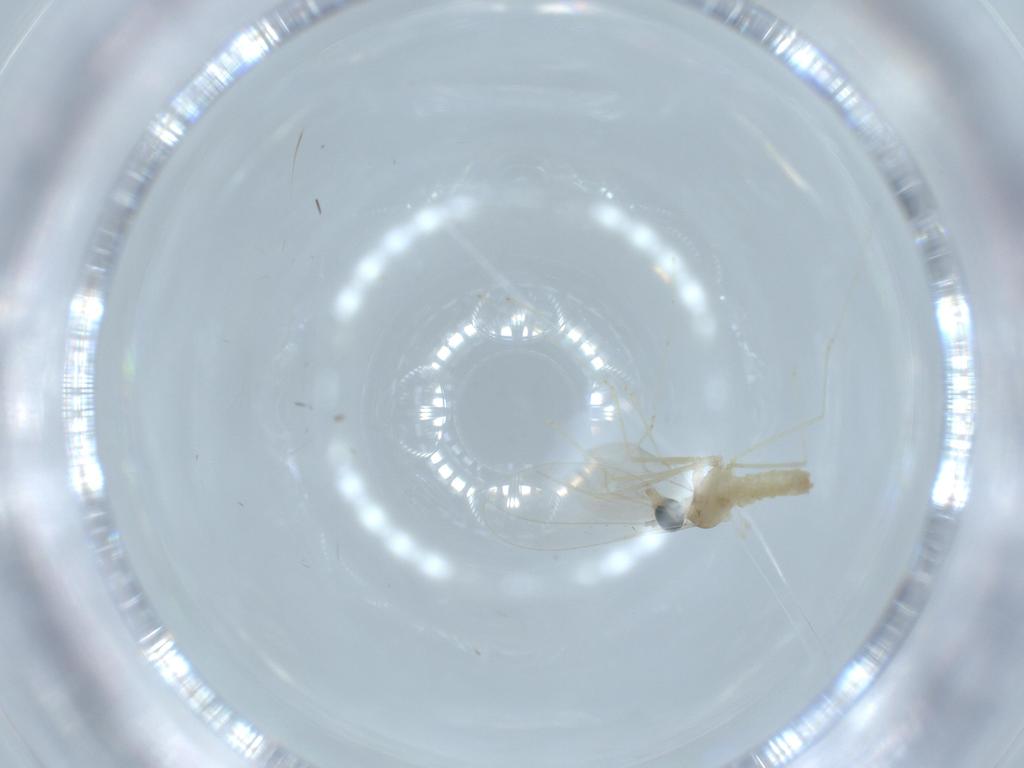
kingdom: Animalia
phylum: Arthropoda
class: Insecta
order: Diptera
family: Cecidomyiidae
